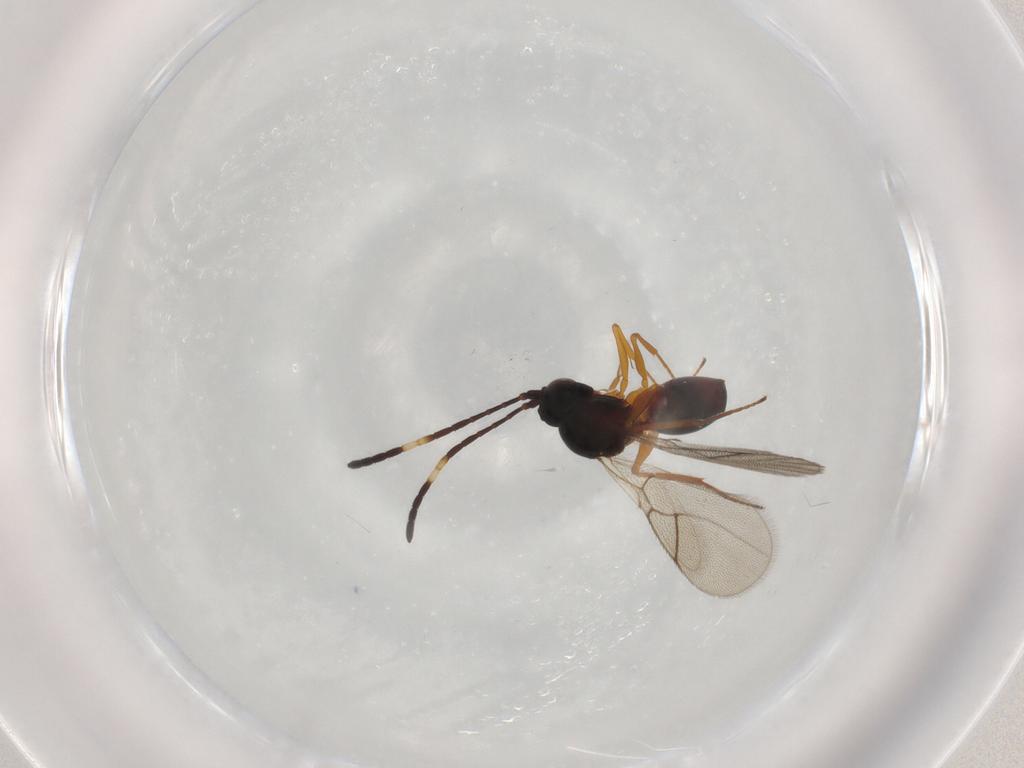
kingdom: Animalia
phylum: Arthropoda
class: Insecta
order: Hymenoptera
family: Figitidae
